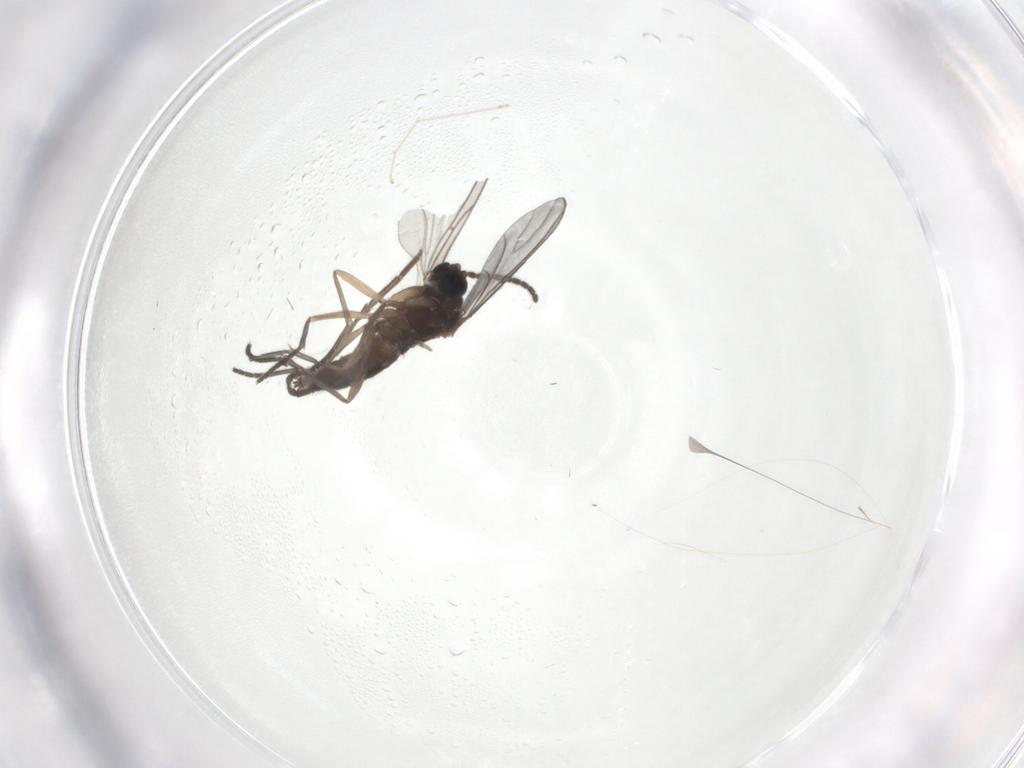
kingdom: Animalia
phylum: Arthropoda
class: Insecta
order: Diptera
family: Sciaridae
